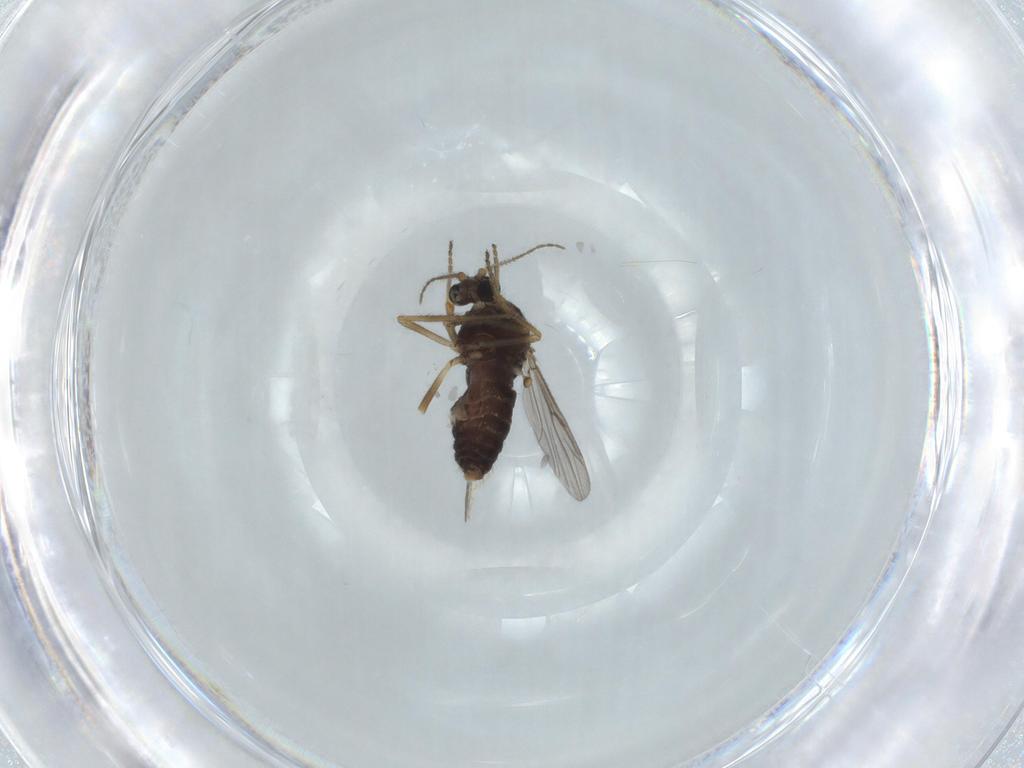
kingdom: Animalia
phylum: Arthropoda
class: Insecta
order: Diptera
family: Ceratopogonidae
